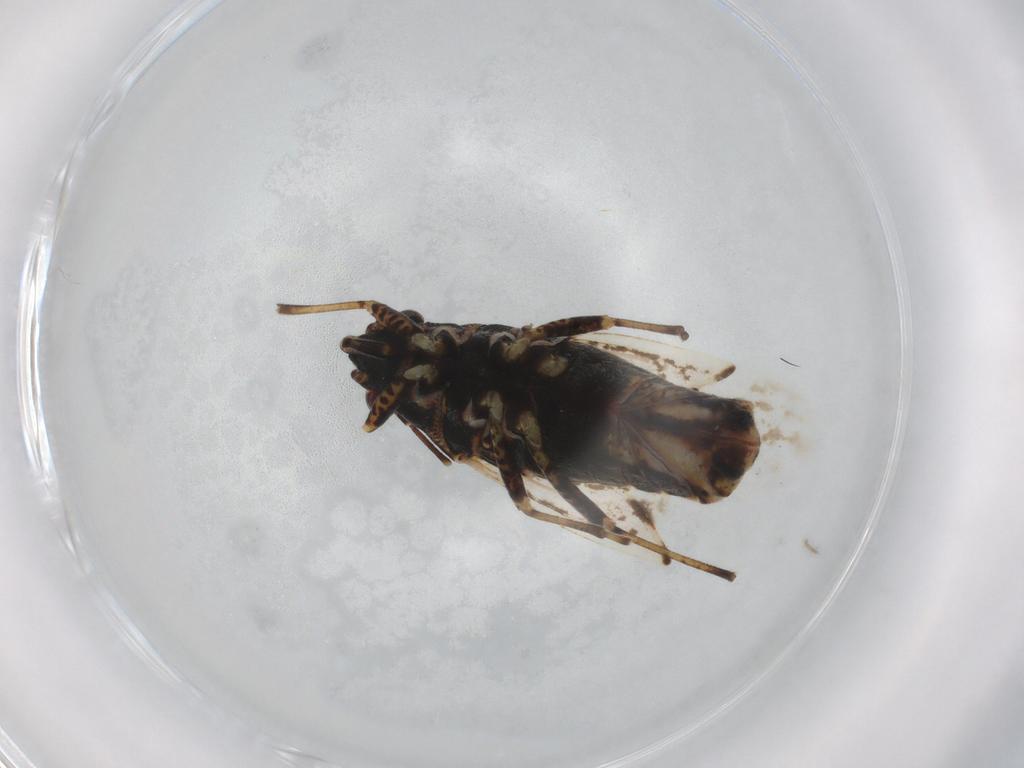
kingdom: Animalia
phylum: Arthropoda
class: Insecta
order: Hemiptera
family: Lygaeidae
